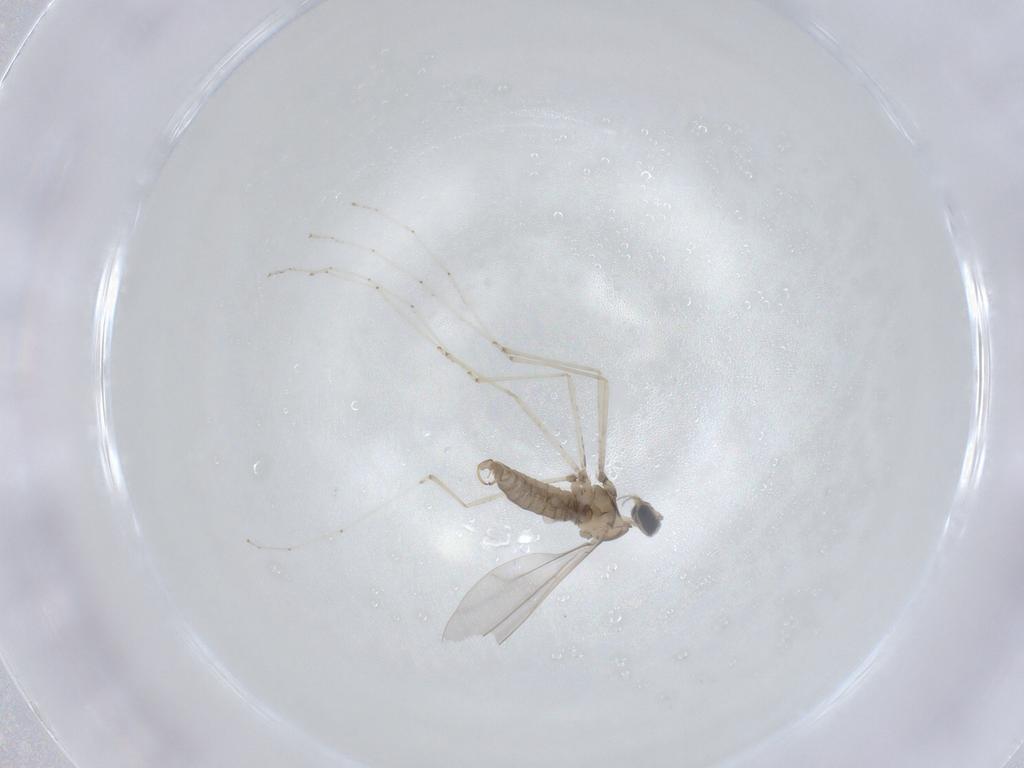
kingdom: Animalia
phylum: Arthropoda
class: Insecta
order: Diptera
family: Cecidomyiidae
